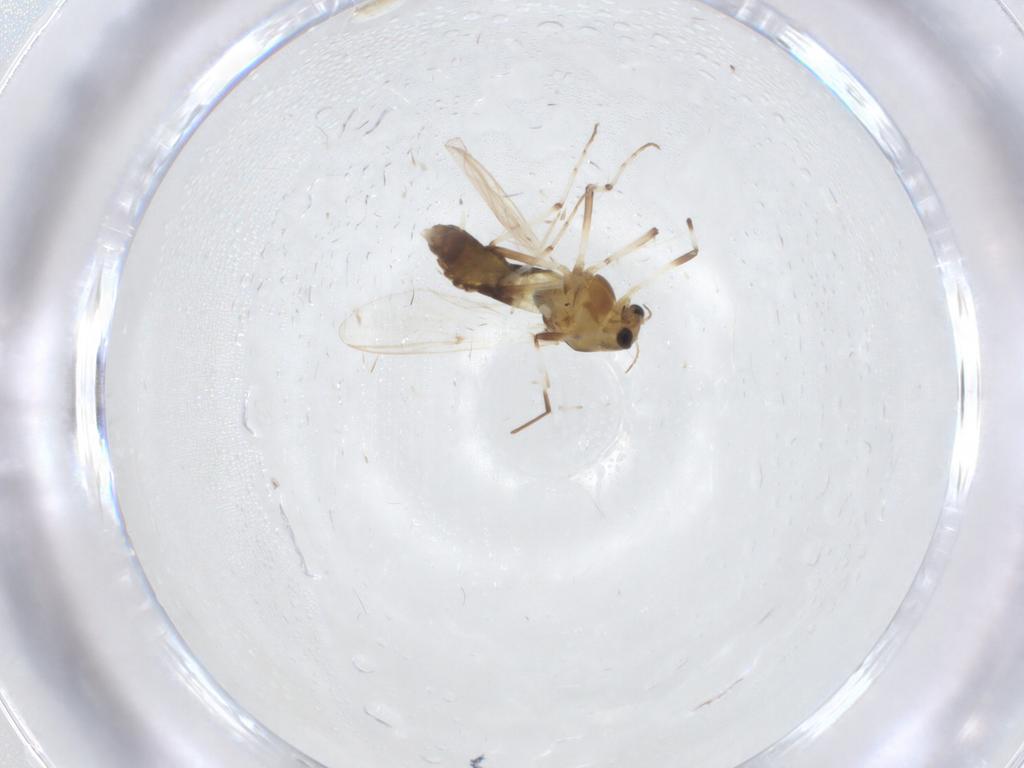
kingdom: Animalia
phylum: Arthropoda
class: Insecta
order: Diptera
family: Chironomidae
